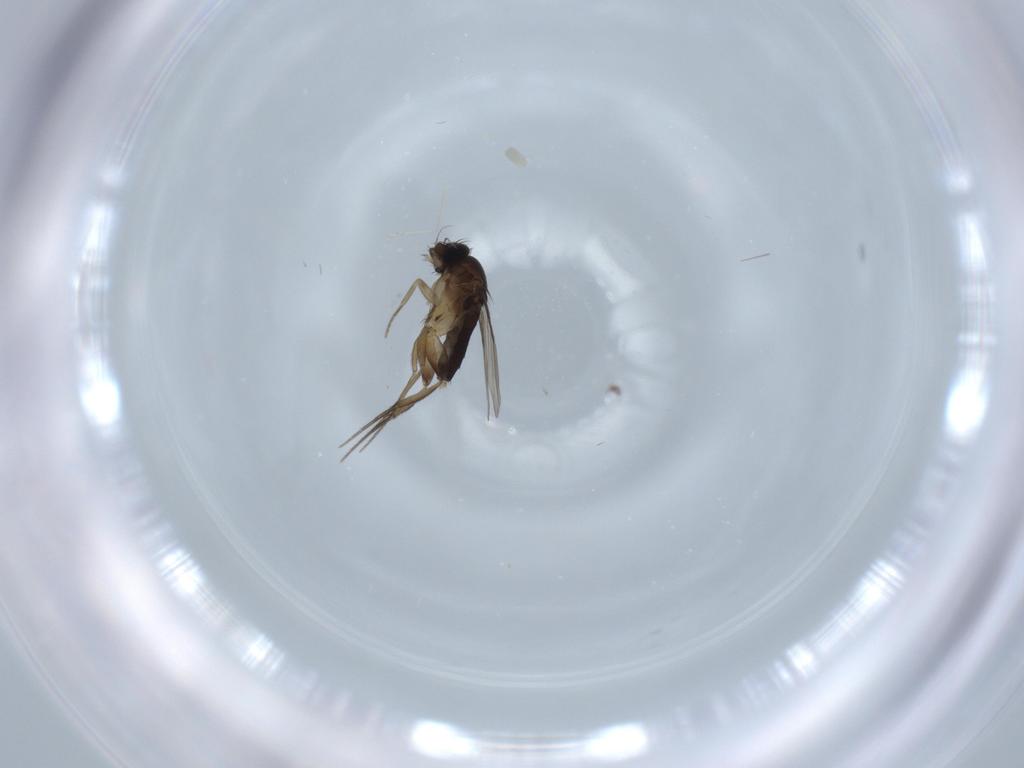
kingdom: Animalia
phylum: Arthropoda
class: Insecta
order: Diptera
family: Phoridae
